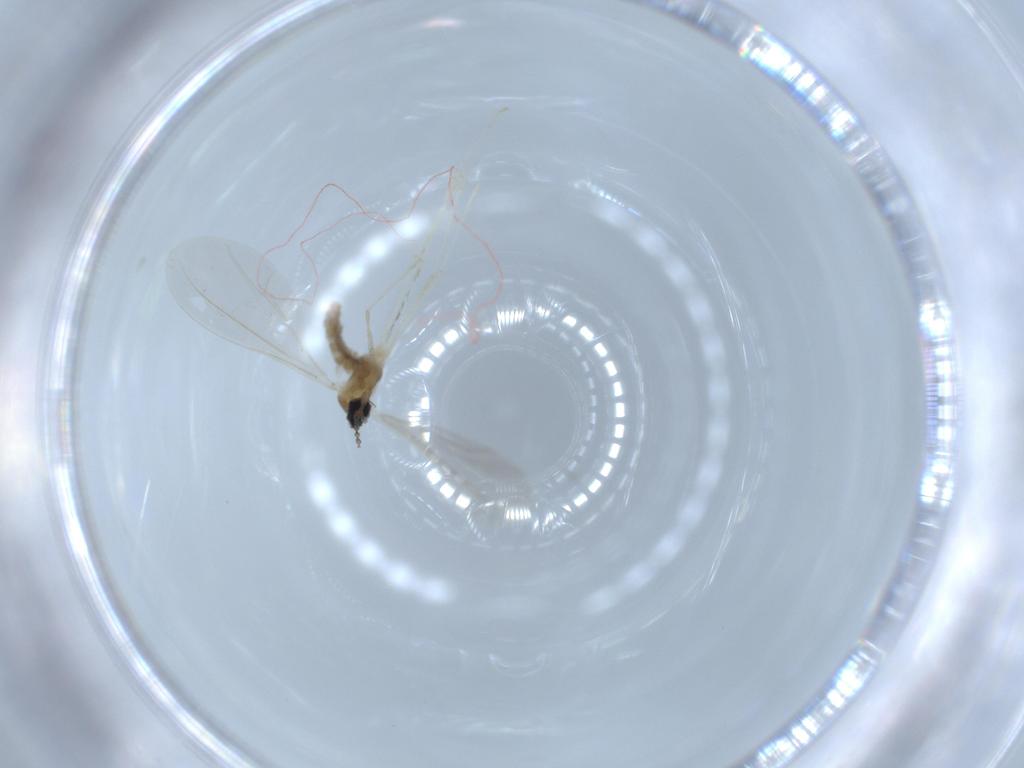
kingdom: Animalia
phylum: Arthropoda
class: Insecta
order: Diptera
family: Cecidomyiidae
